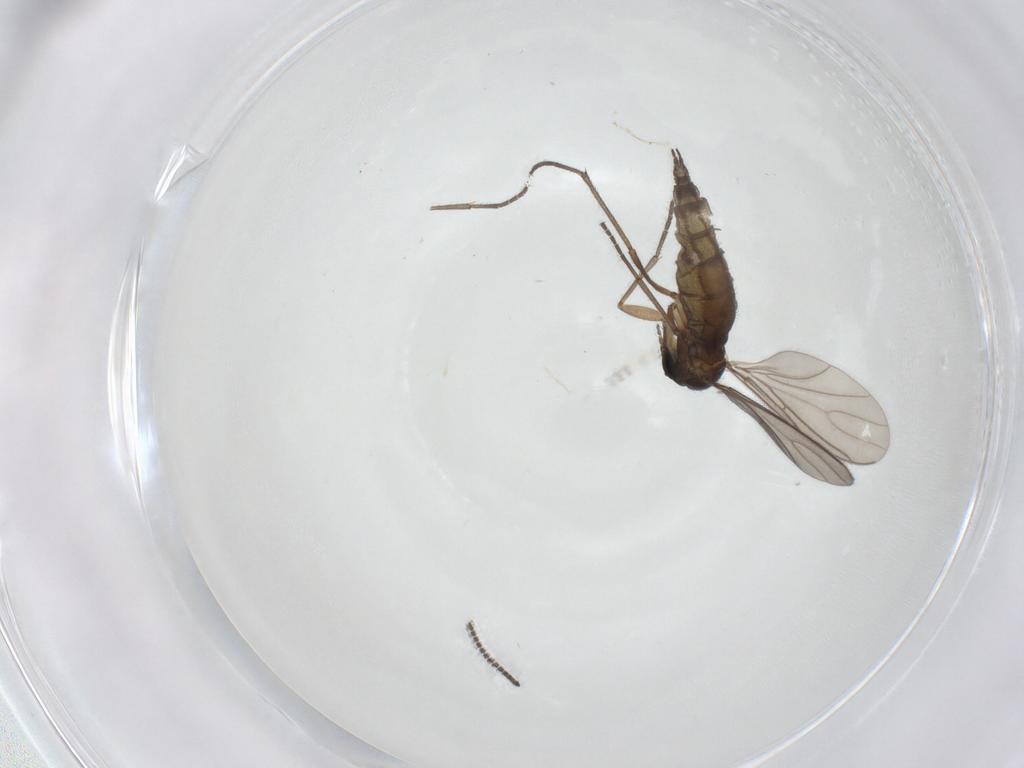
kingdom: Animalia
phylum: Arthropoda
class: Insecta
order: Diptera
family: Sciaridae
